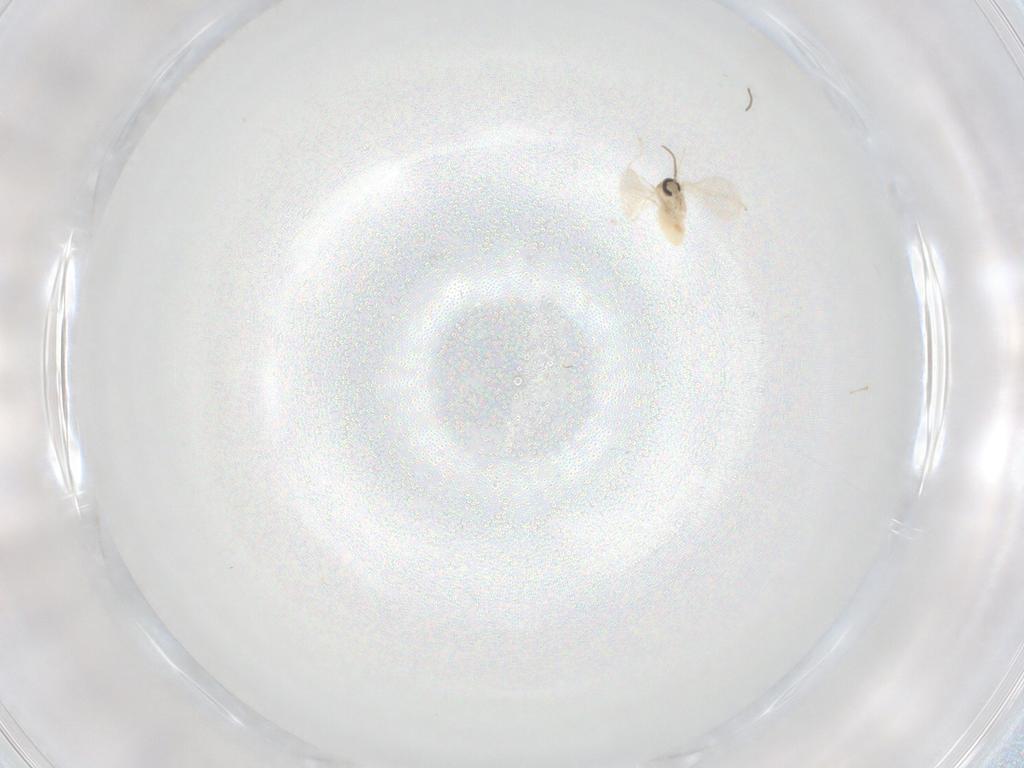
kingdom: Animalia
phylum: Arthropoda
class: Insecta
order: Diptera
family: Cecidomyiidae
